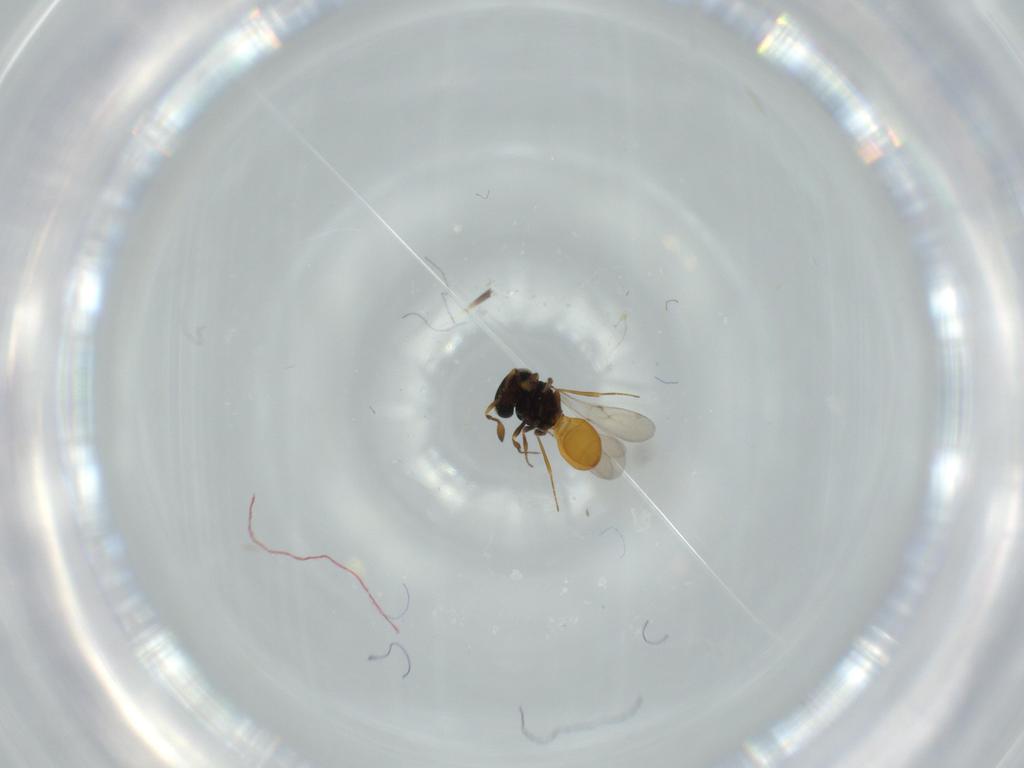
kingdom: Animalia
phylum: Arthropoda
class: Insecta
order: Hymenoptera
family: Scelionidae
